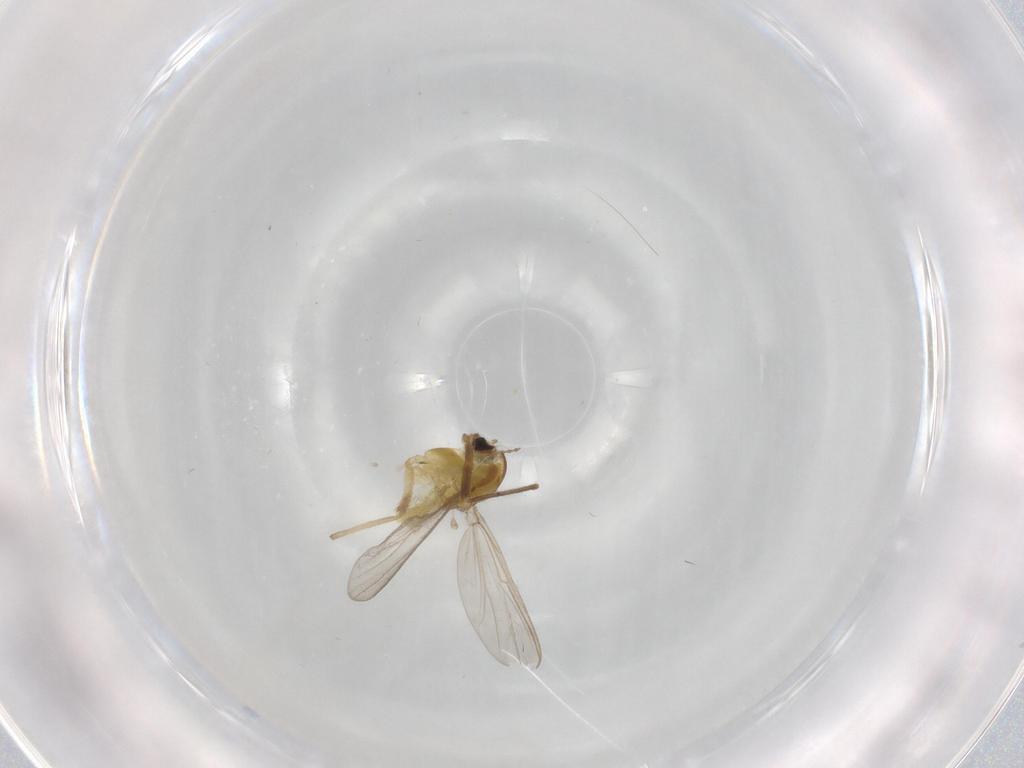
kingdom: Animalia
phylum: Arthropoda
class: Insecta
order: Diptera
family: Chironomidae
